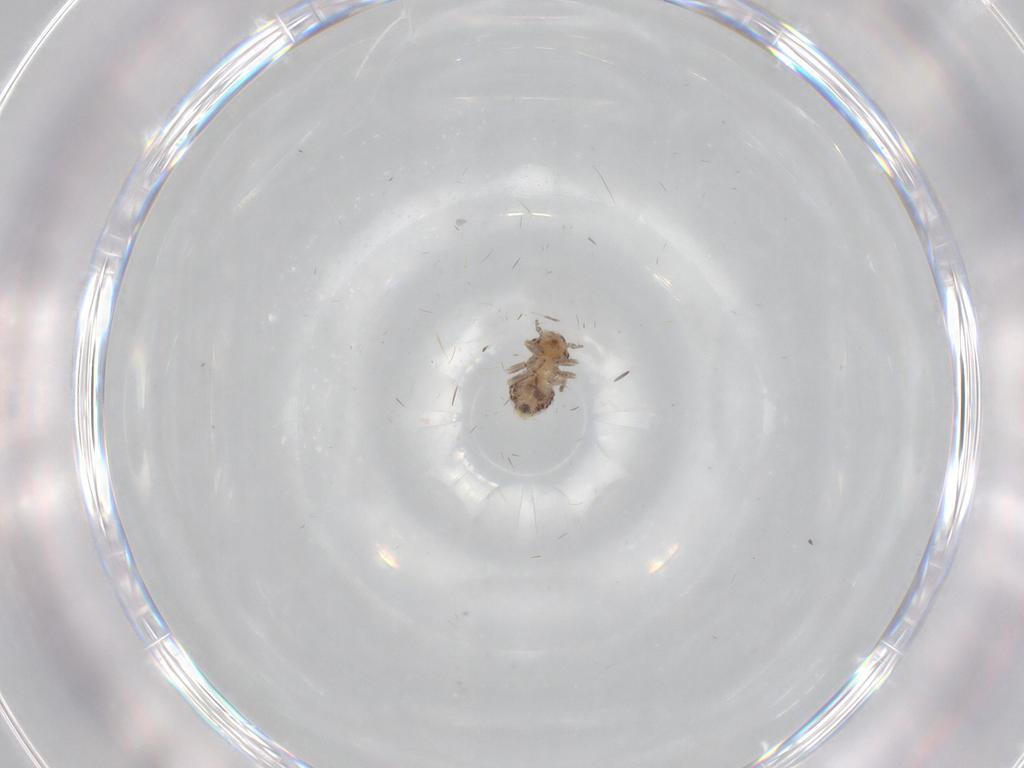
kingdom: Animalia
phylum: Arthropoda
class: Insecta
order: Psocodea
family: Psocidae
